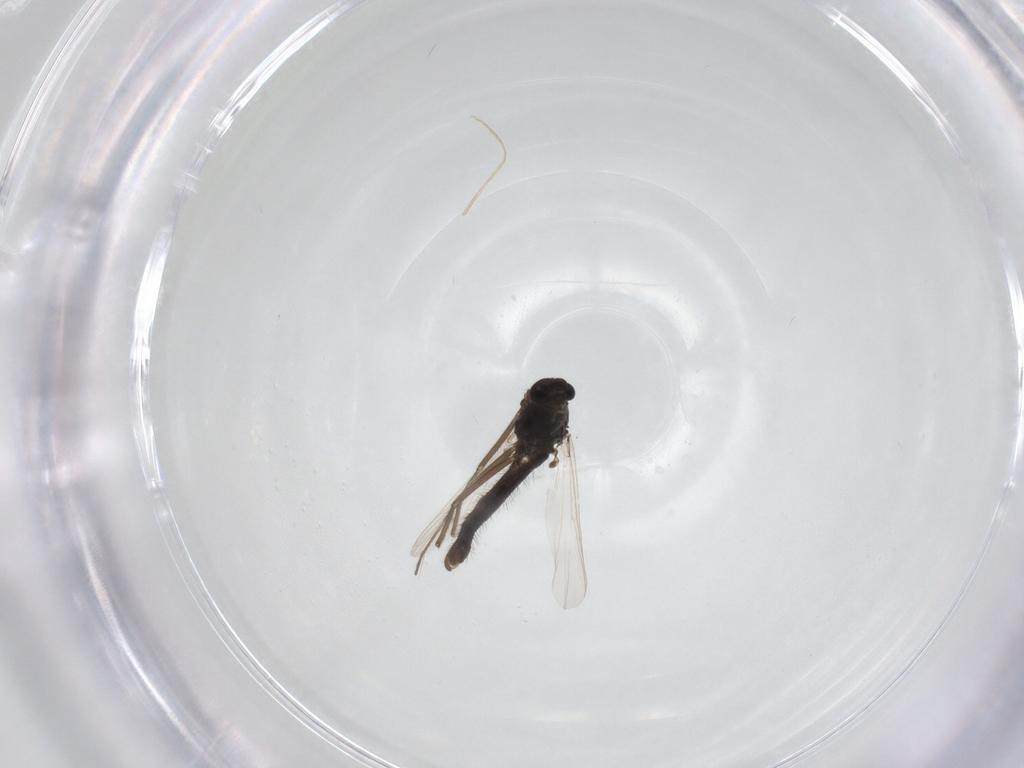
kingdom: Animalia
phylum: Arthropoda
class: Insecta
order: Diptera
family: Chironomidae
